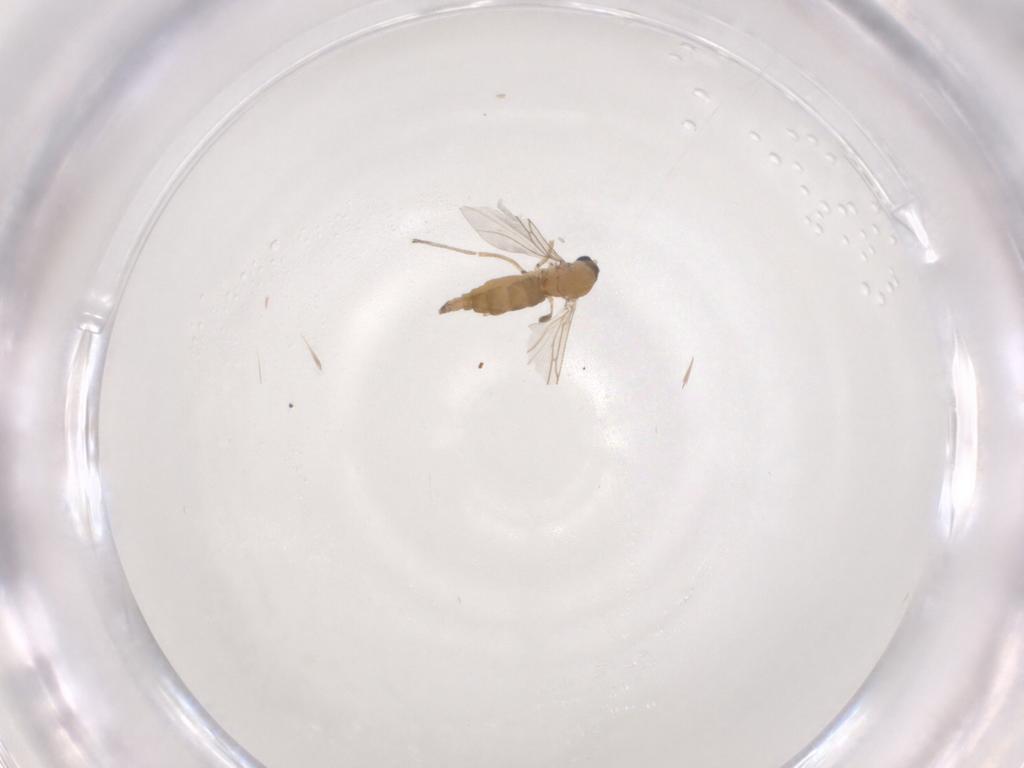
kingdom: Animalia
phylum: Arthropoda
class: Insecta
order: Diptera
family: Sciaridae
